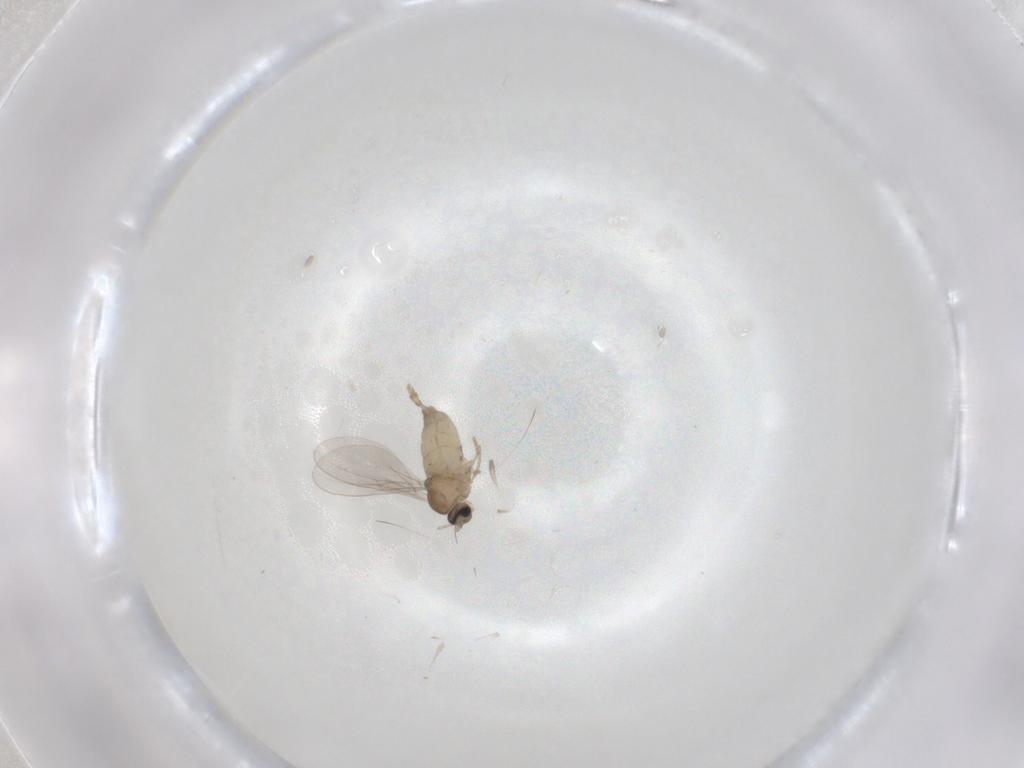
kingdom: Animalia
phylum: Arthropoda
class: Insecta
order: Diptera
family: Cecidomyiidae
